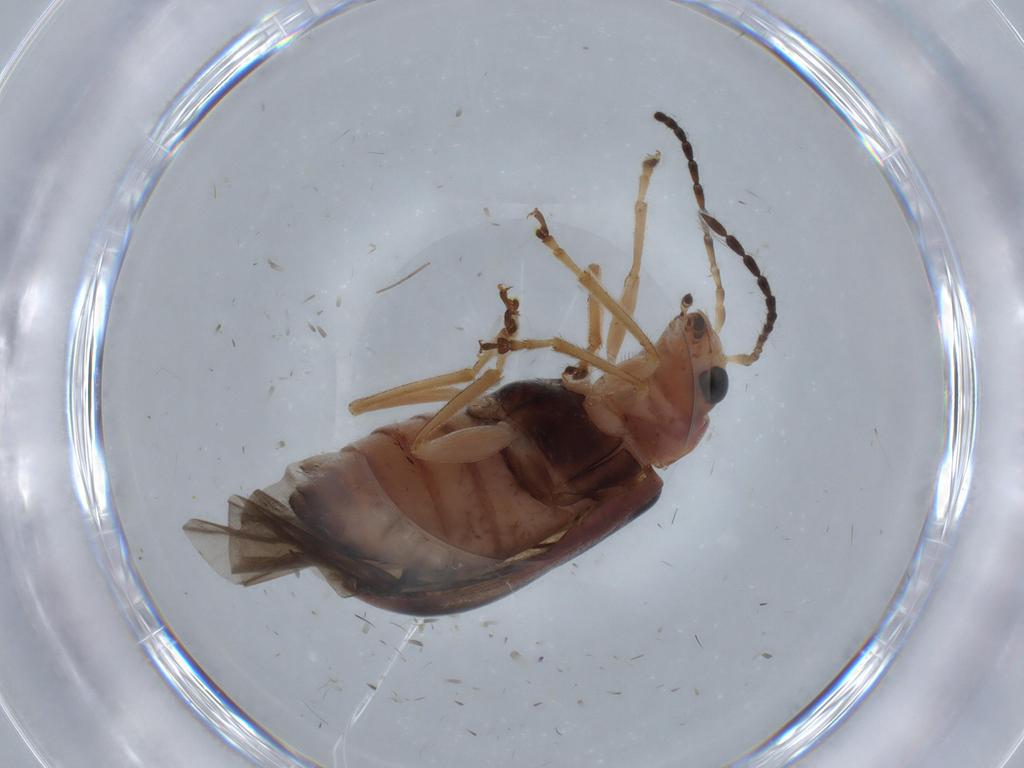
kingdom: Animalia
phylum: Arthropoda
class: Insecta
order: Coleoptera
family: Chrysomelidae
